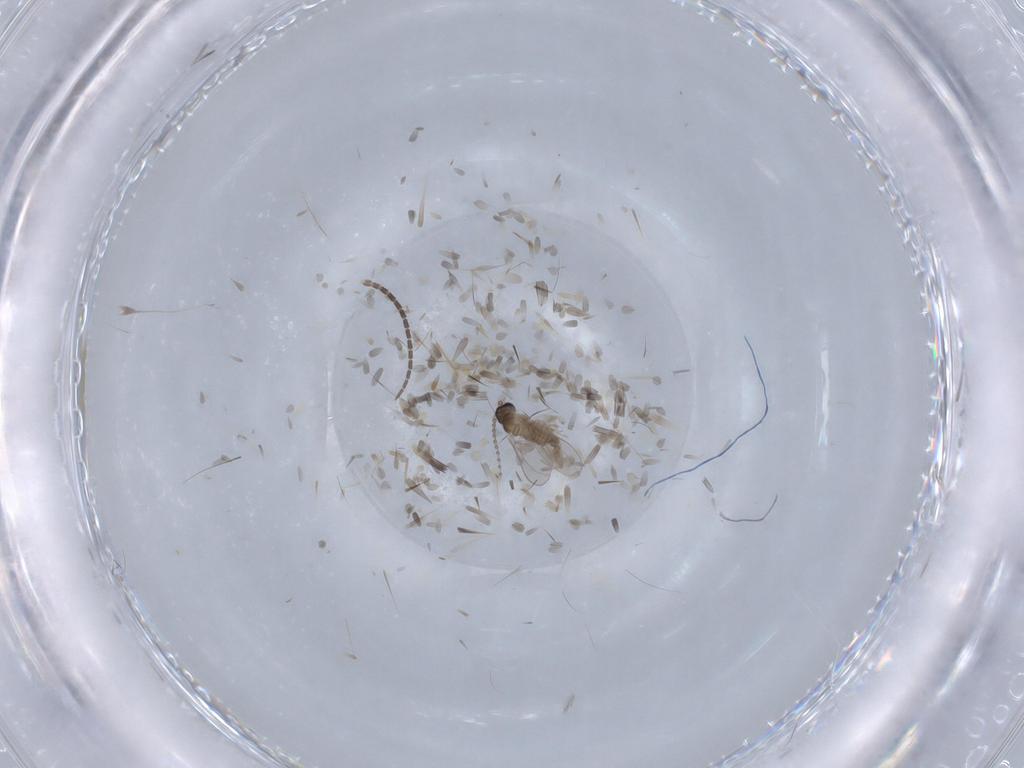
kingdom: Animalia
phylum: Arthropoda
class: Insecta
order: Diptera
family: Sciaridae
